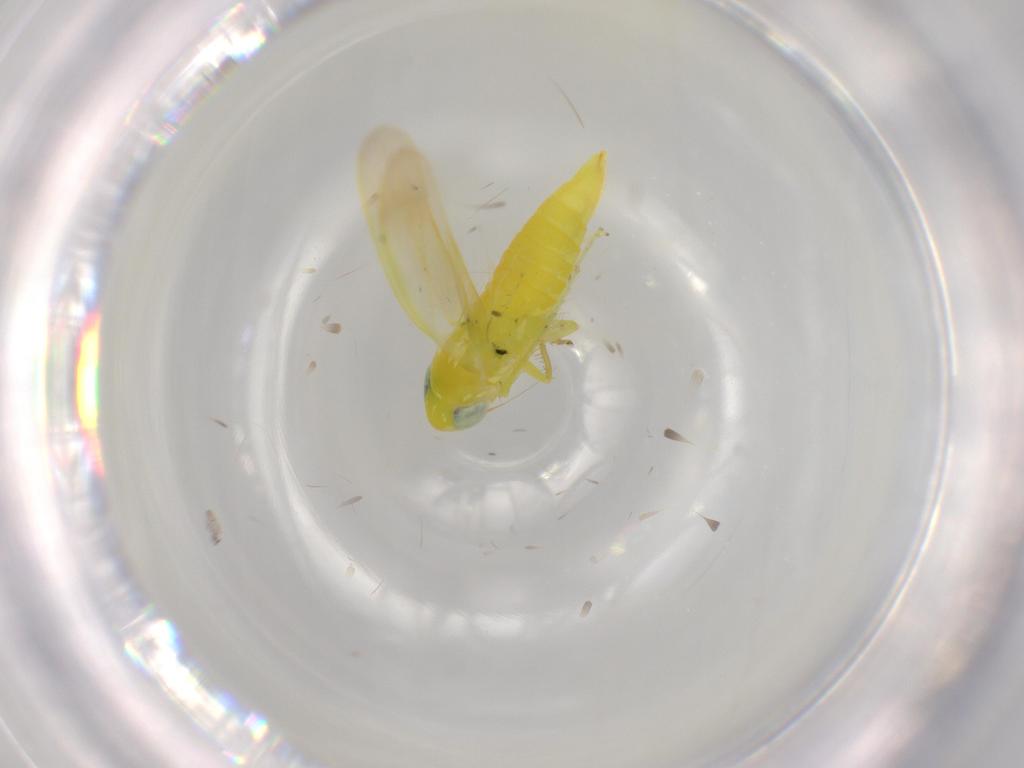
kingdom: Animalia
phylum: Arthropoda
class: Insecta
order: Hemiptera
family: Cicadellidae
